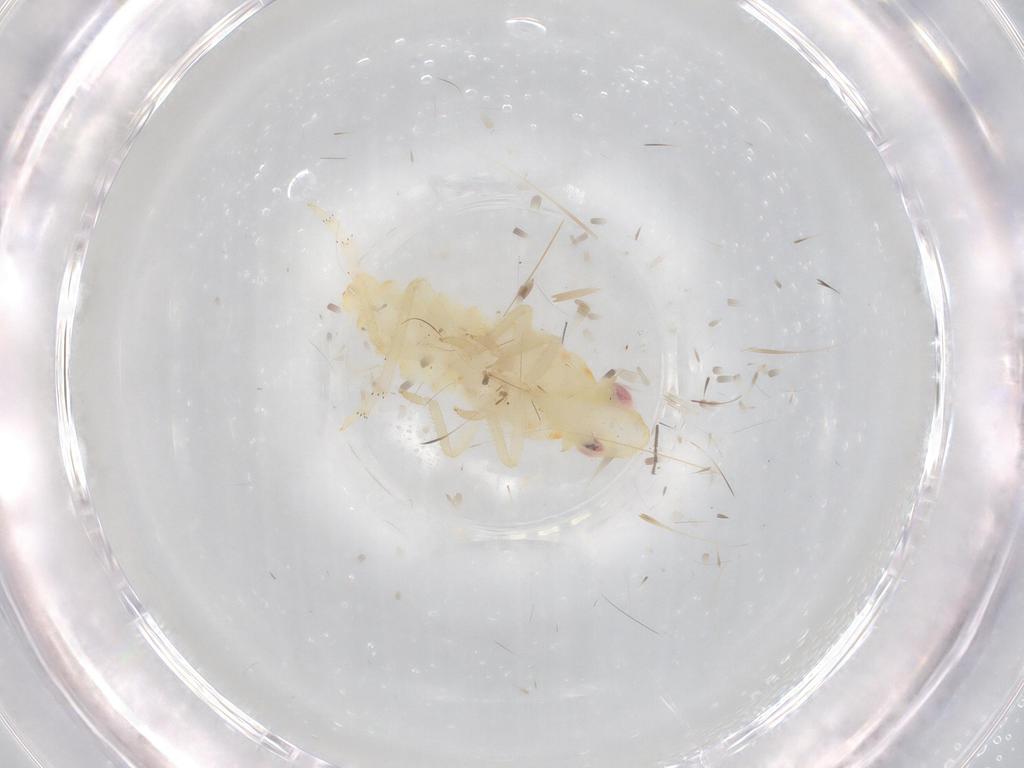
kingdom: Animalia
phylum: Arthropoda
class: Insecta
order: Hemiptera
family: Tropiduchidae
